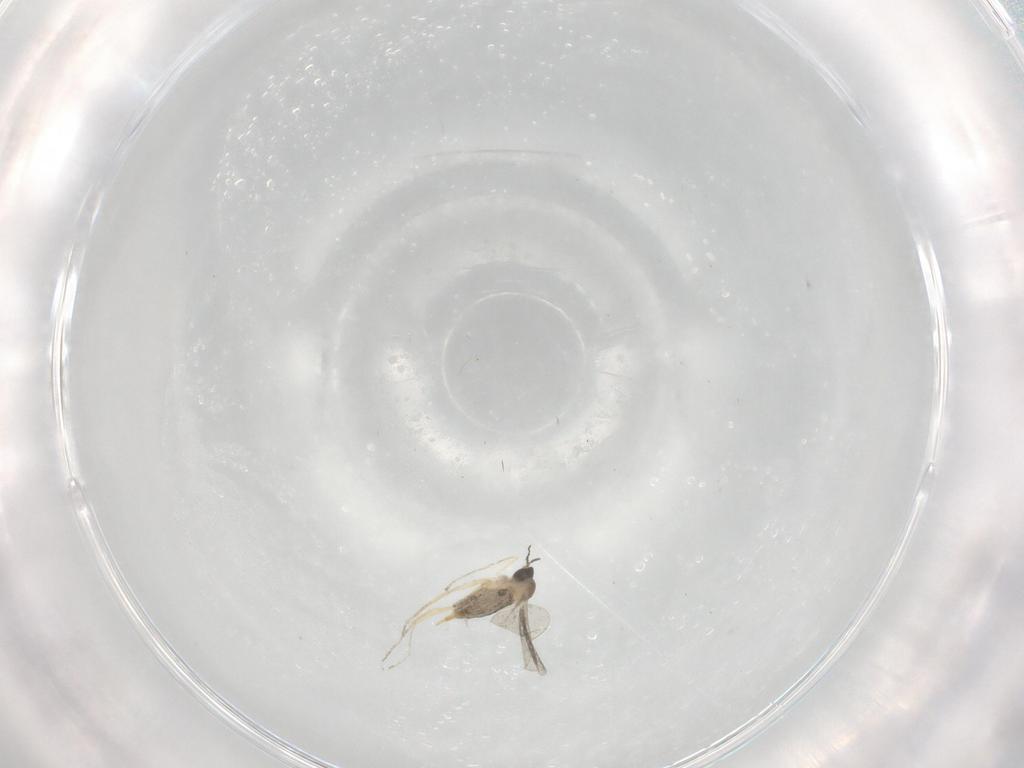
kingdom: Animalia
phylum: Arthropoda
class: Insecta
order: Diptera
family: Cecidomyiidae
